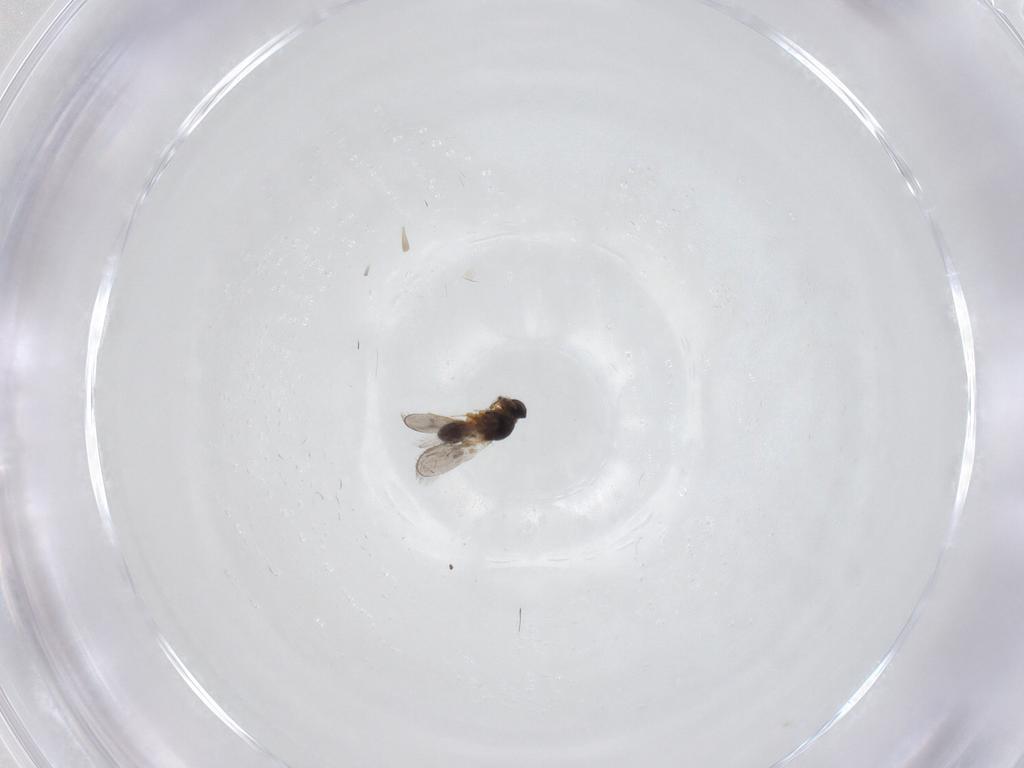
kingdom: Animalia
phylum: Arthropoda
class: Insecta
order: Hymenoptera
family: Platygastridae
